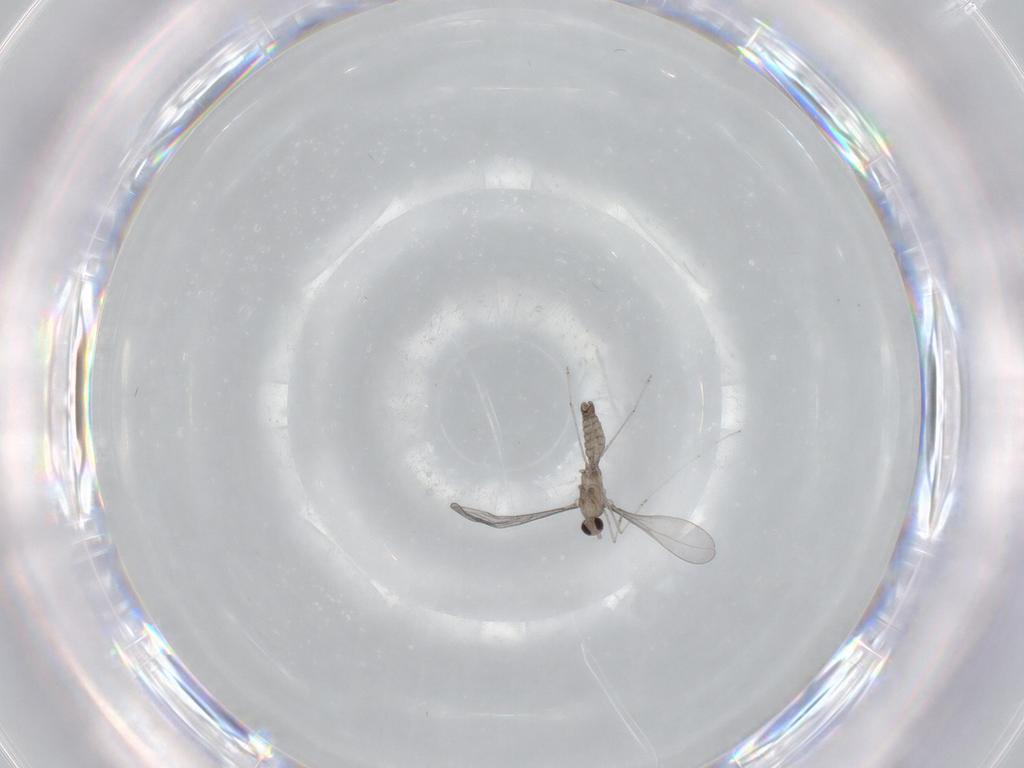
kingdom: Animalia
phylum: Arthropoda
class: Insecta
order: Diptera
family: Cecidomyiidae
